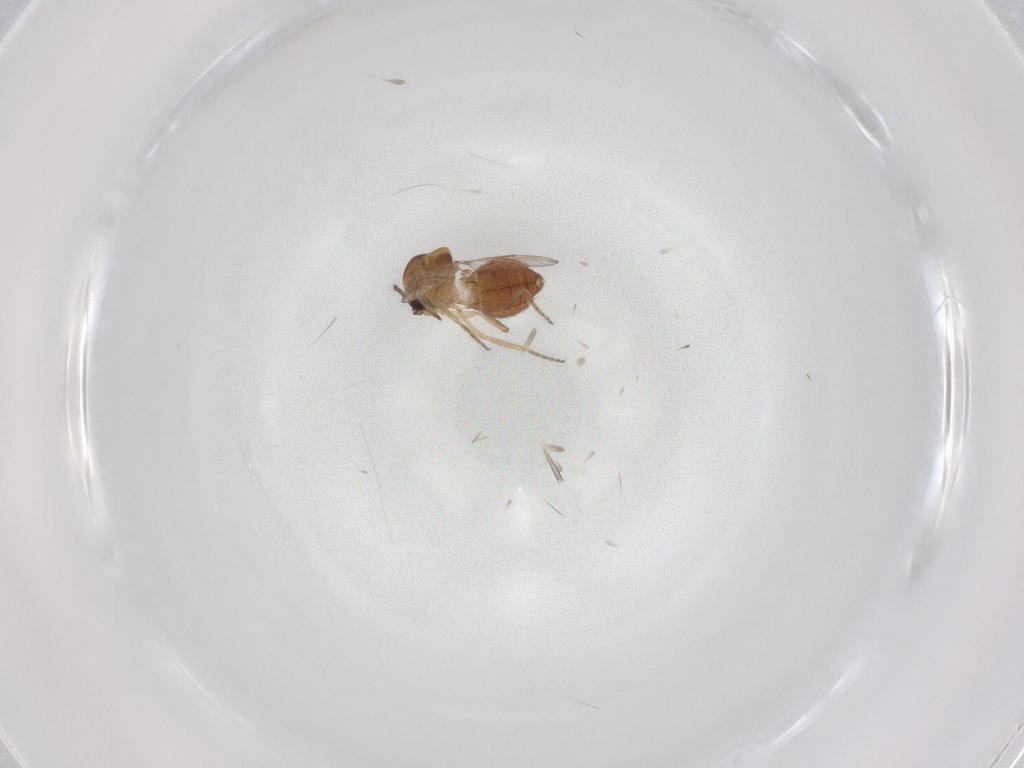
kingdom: Animalia
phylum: Arthropoda
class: Insecta
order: Diptera
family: Ceratopogonidae
